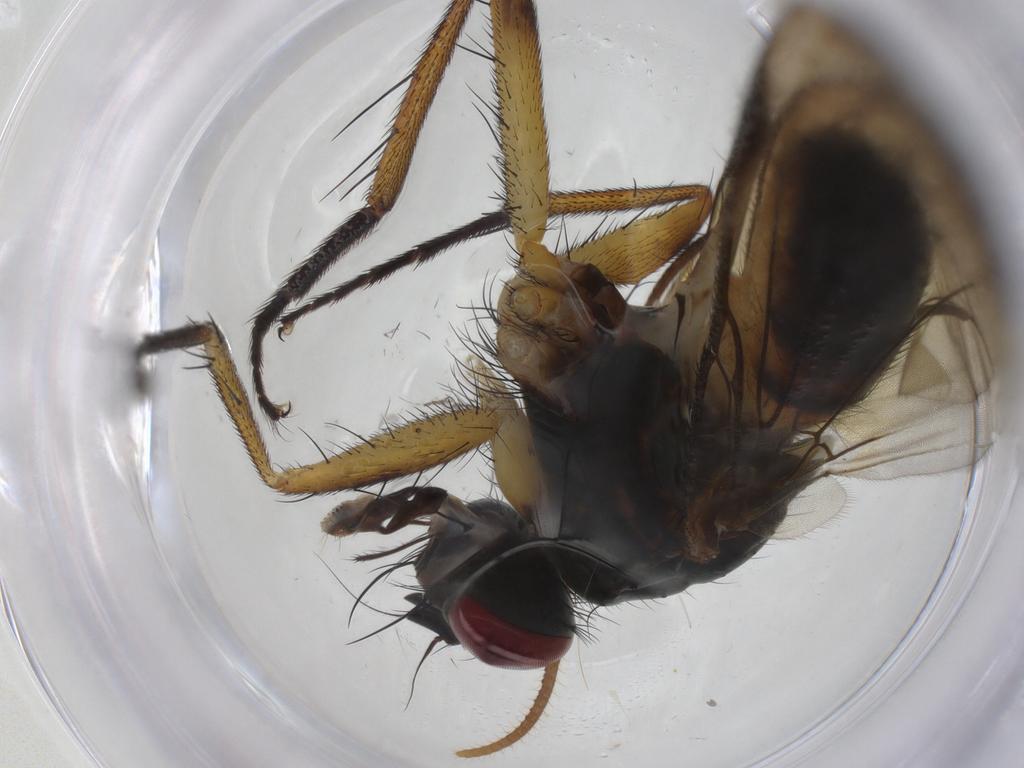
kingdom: Animalia
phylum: Arthropoda
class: Insecta
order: Diptera
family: Muscidae
